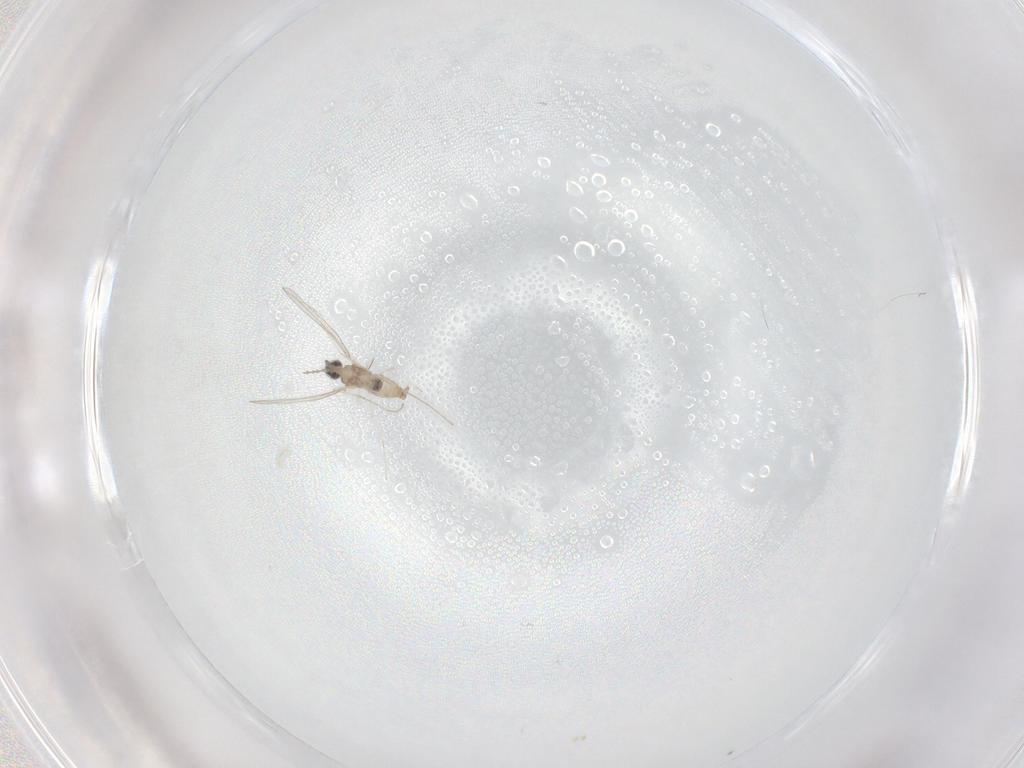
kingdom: Animalia
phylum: Arthropoda
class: Insecta
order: Diptera
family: Cecidomyiidae
